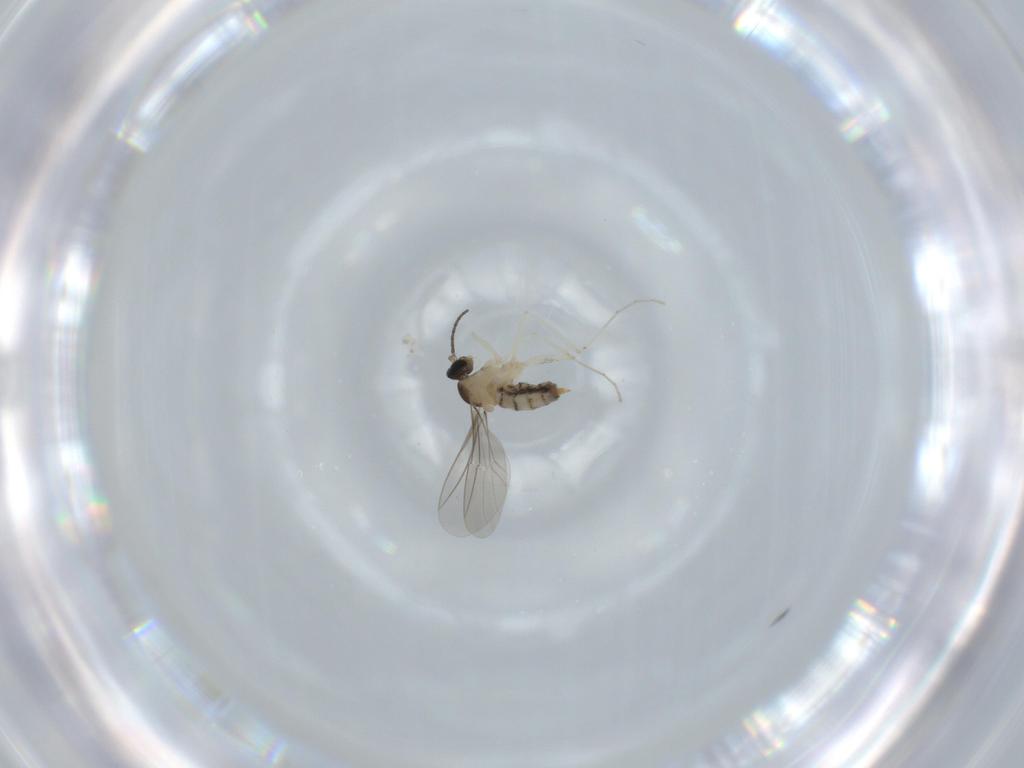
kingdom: Animalia
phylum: Arthropoda
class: Insecta
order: Diptera
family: Cecidomyiidae
